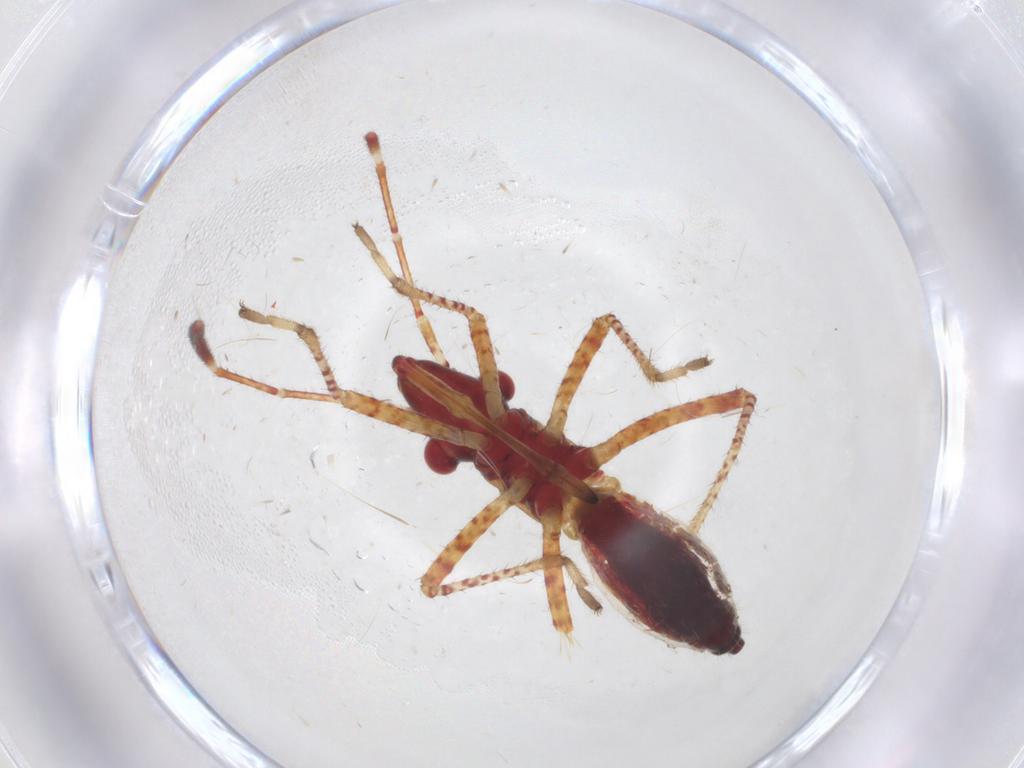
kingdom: Animalia
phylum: Arthropoda
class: Insecta
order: Hemiptera
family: Alydidae
